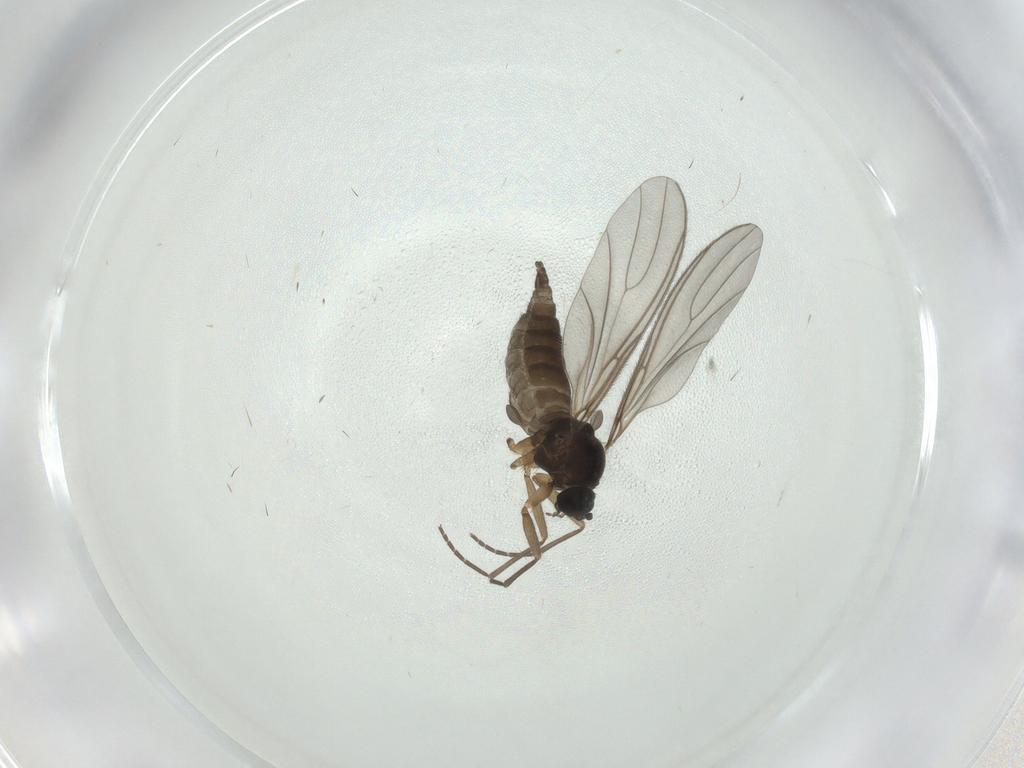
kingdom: Animalia
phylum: Arthropoda
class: Insecta
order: Diptera
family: Sciaridae
